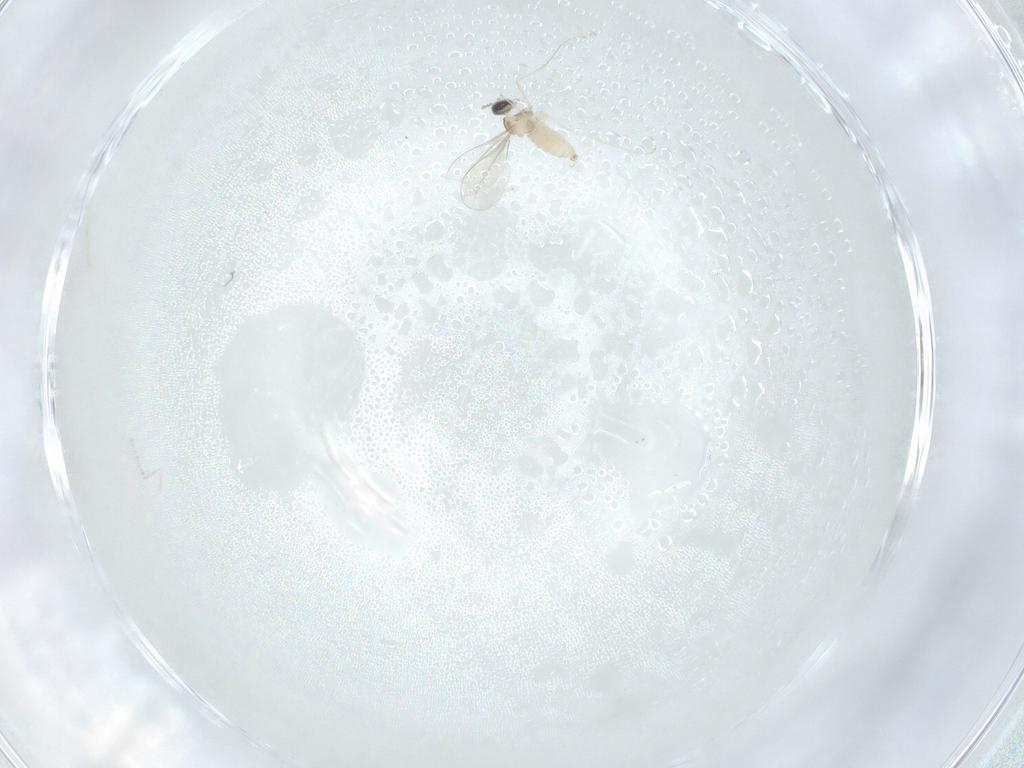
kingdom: Animalia
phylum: Arthropoda
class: Insecta
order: Diptera
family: Cecidomyiidae
